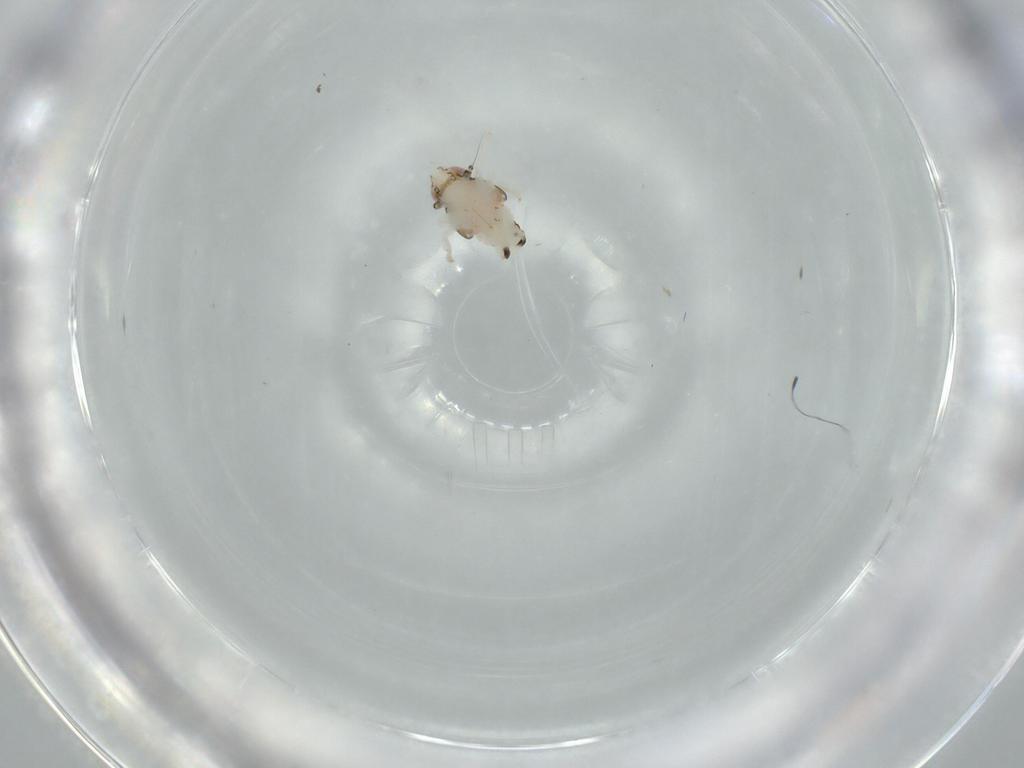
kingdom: Animalia
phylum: Arthropoda
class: Insecta
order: Hemiptera
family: Nogodinidae
